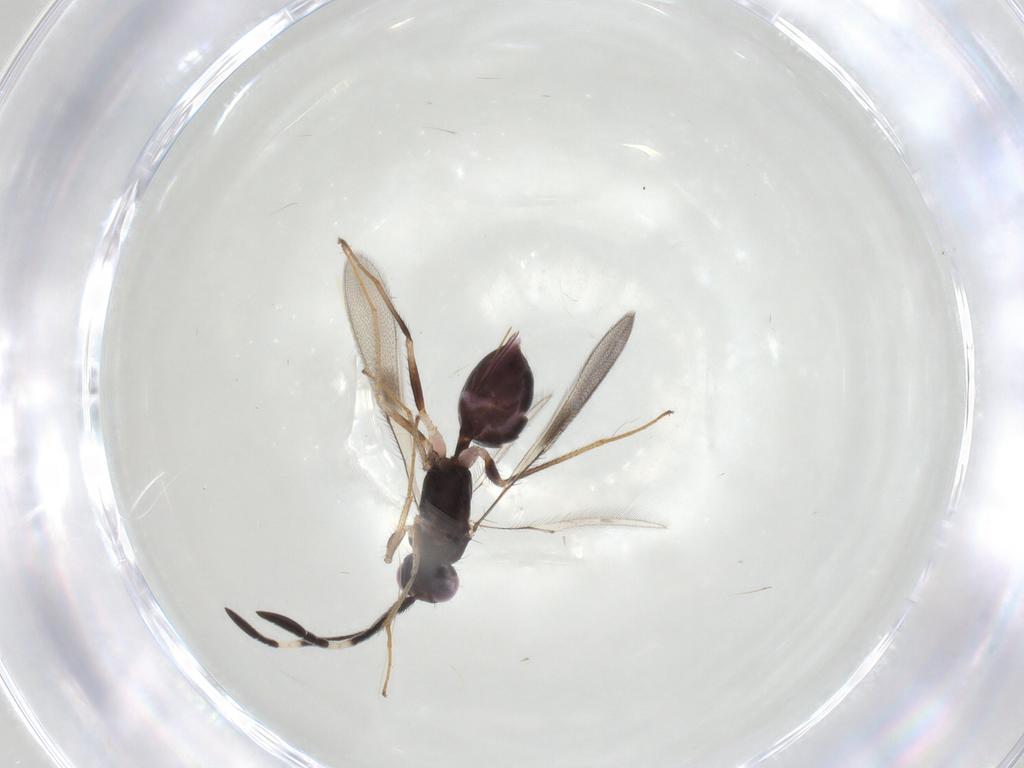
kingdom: Animalia
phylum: Arthropoda
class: Insecta
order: Hymenoptera
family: Mymaridae
